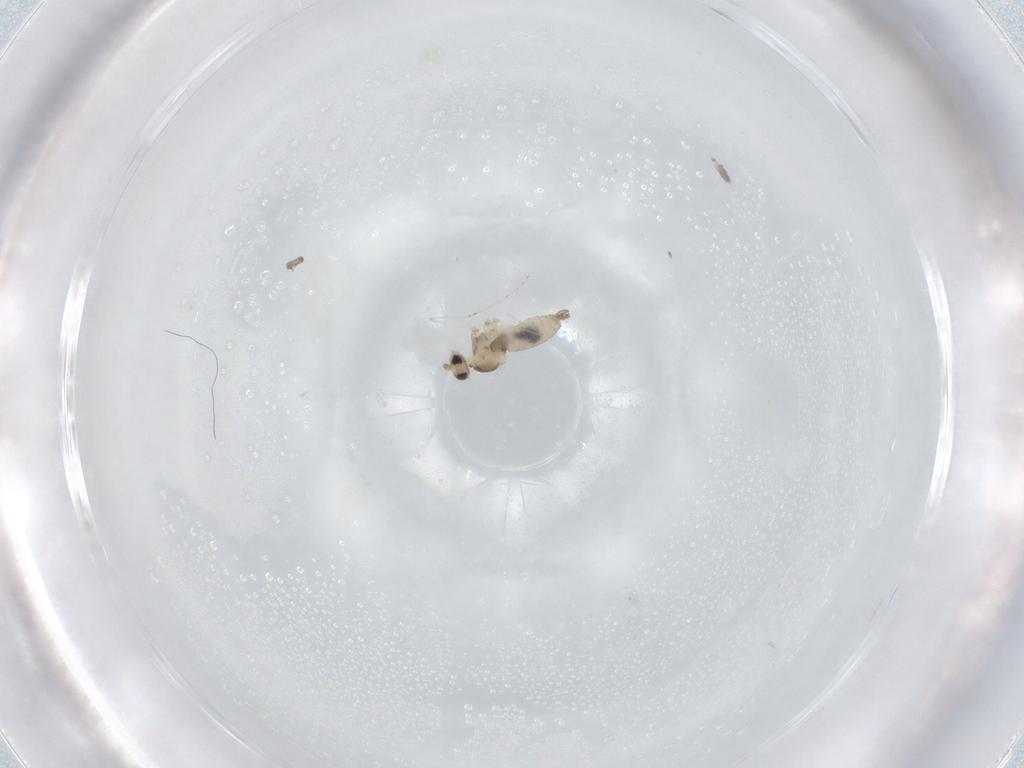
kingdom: Animalia
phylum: Arthropoda
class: Insecta
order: Diptera
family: Cecidomyiidae
